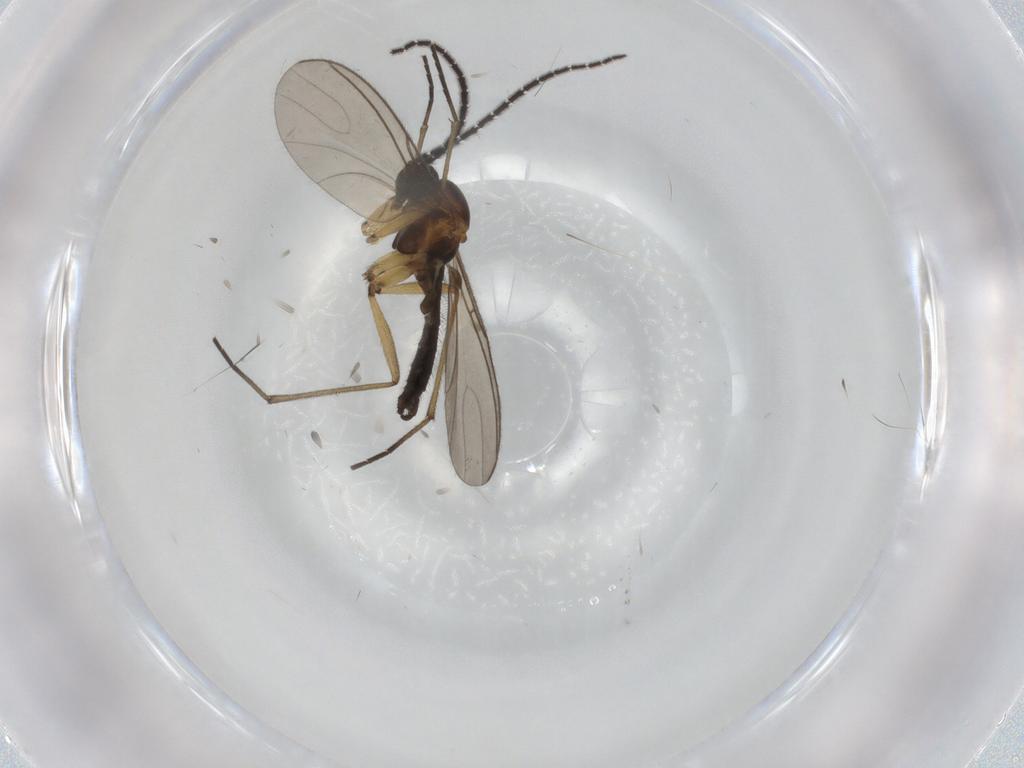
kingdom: Animalia
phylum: Arthropoda
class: Insecta
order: Diptera
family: Sciaridae
